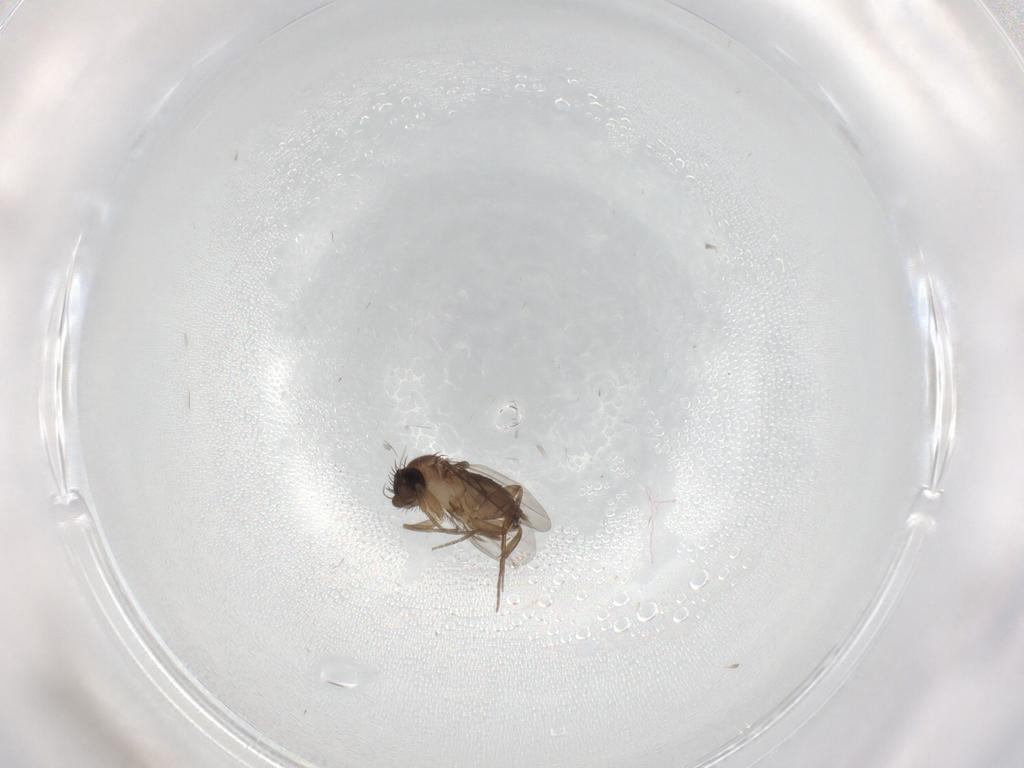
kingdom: Animalia
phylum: Arthropoda
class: Insecta
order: Diptera
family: Phoridae
